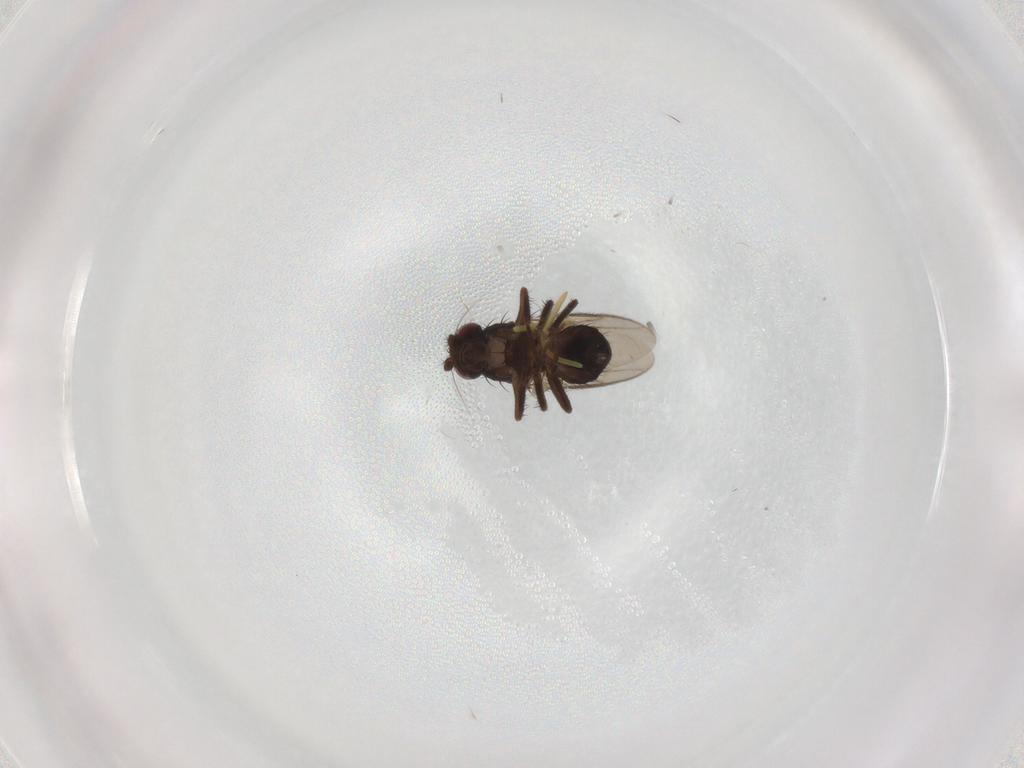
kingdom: Animalia
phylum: Arthropoda
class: Insecta
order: Diptera
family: Sphaeroceridae
